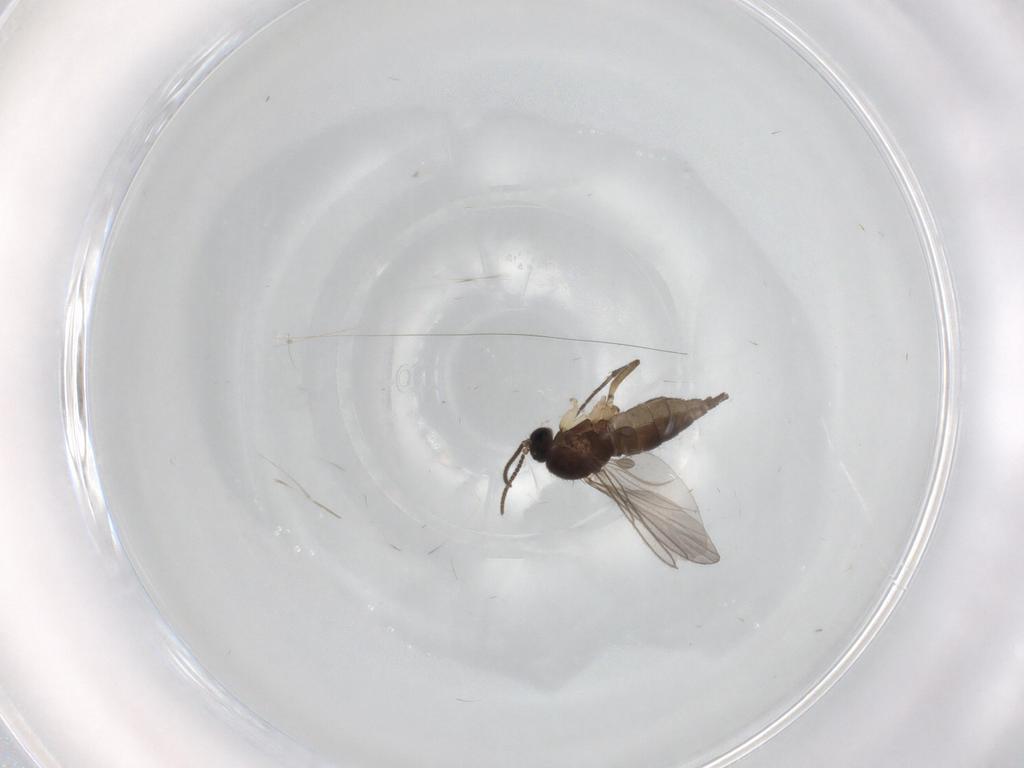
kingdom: Animalia
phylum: Arthropoda
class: Insecta
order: Diptera
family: Sciaridae
